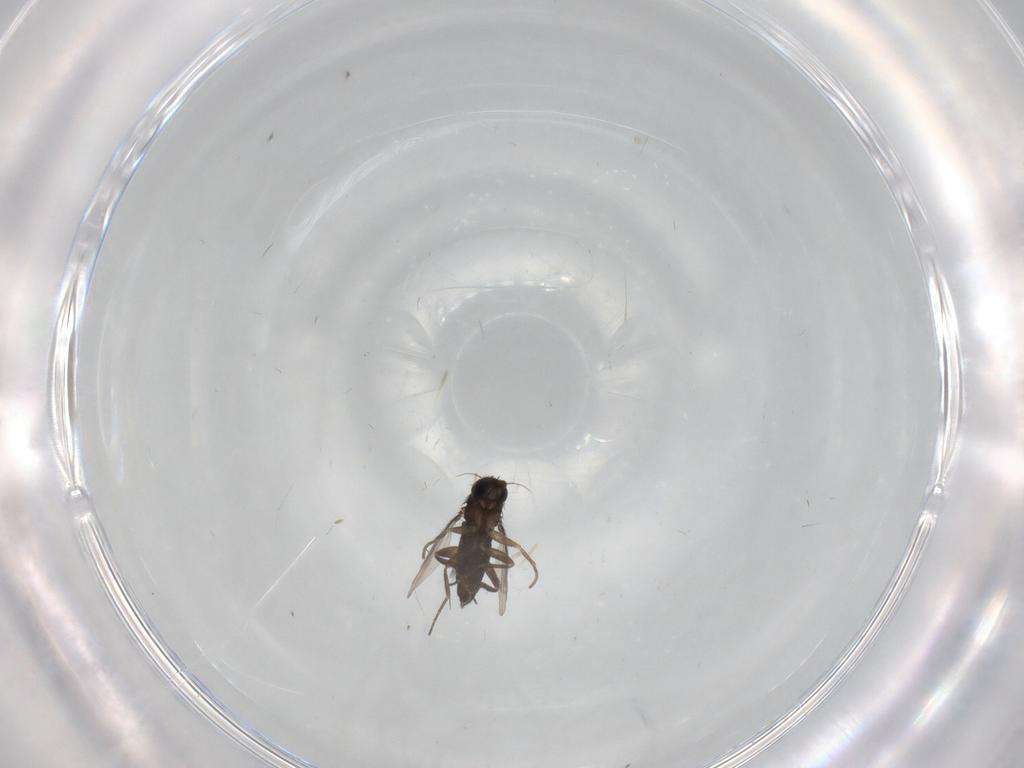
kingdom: Animalia
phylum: Arthropoda
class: Insecta
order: Diptera
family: Phoridae
